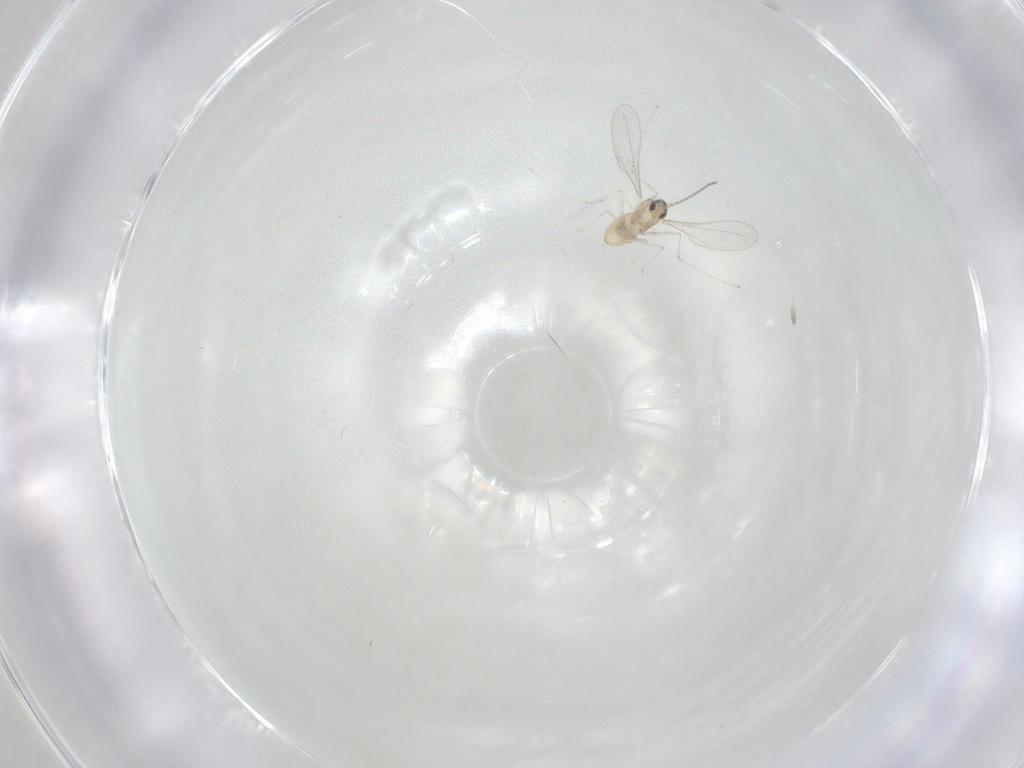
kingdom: Animalia
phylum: Arthropoda
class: Insecta
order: Diptera
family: Cecidomyiidae
